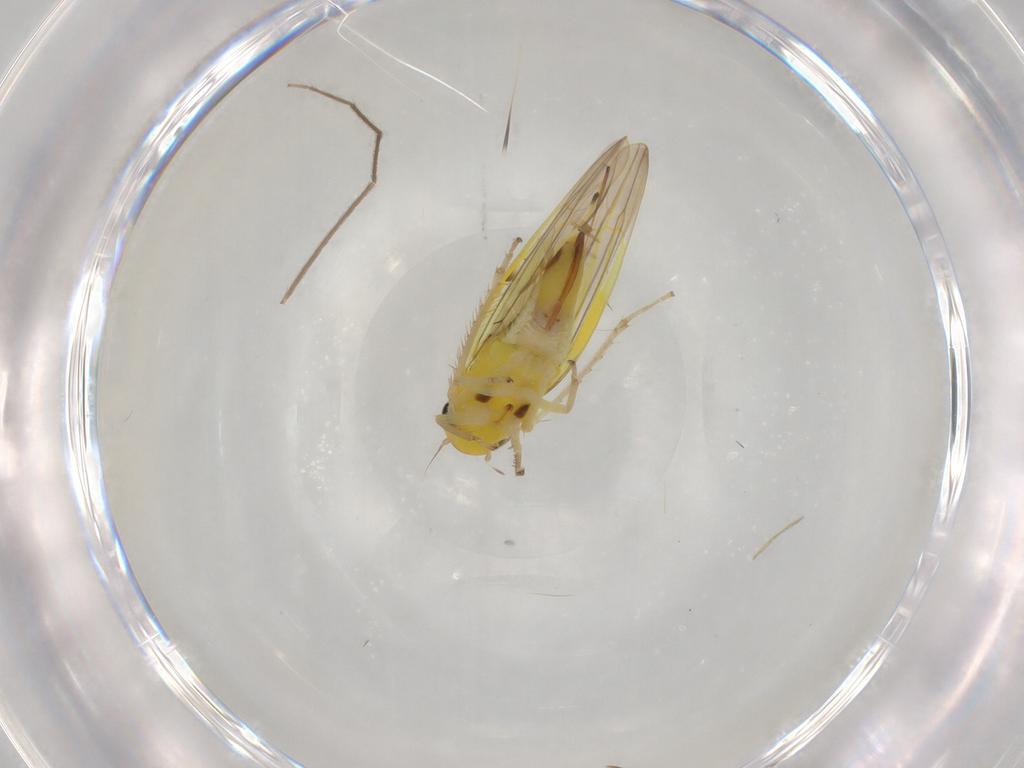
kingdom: Animalia
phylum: Arthropoda
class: Insecta
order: Hemiptera
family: Cicadellidae
